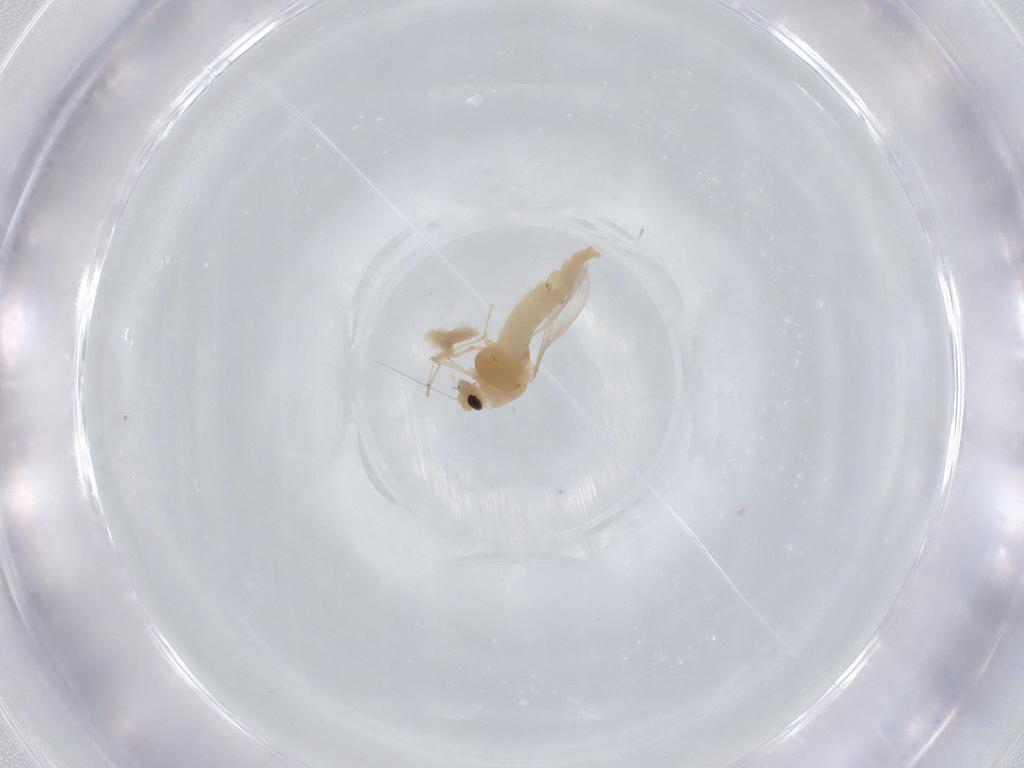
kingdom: Animalia
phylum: Arthropoda
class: Insecta
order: Diptera
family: Chironomidae
